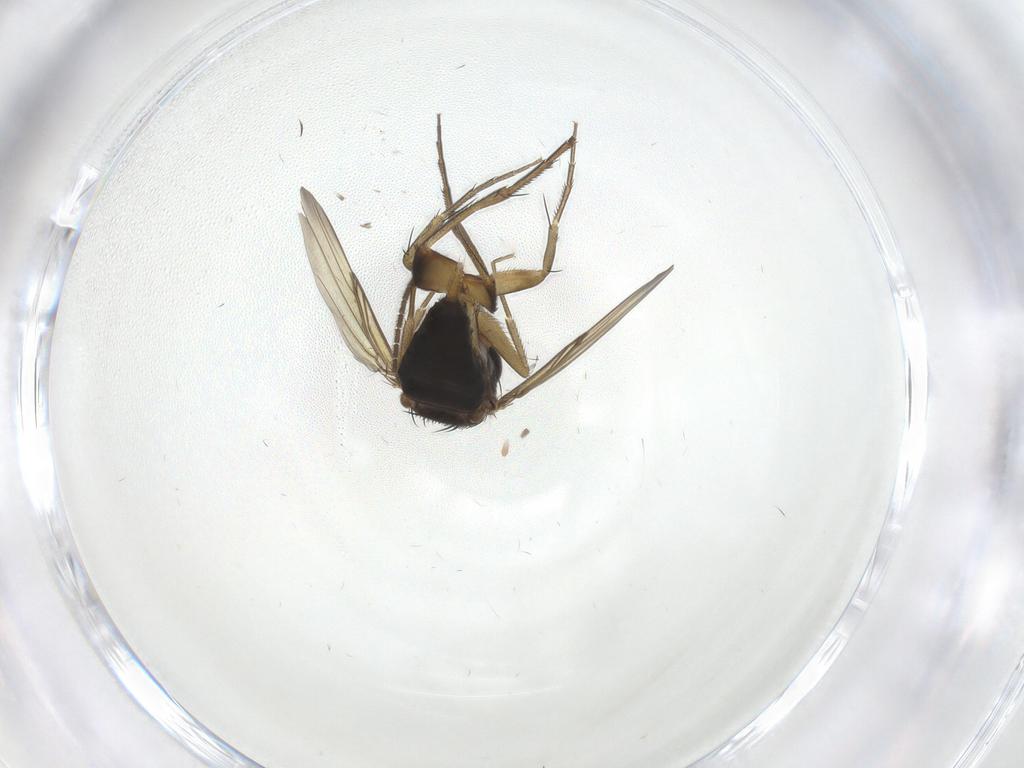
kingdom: Animalia
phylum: Arthropoda
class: Insecta
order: Diptera
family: Phoridae
